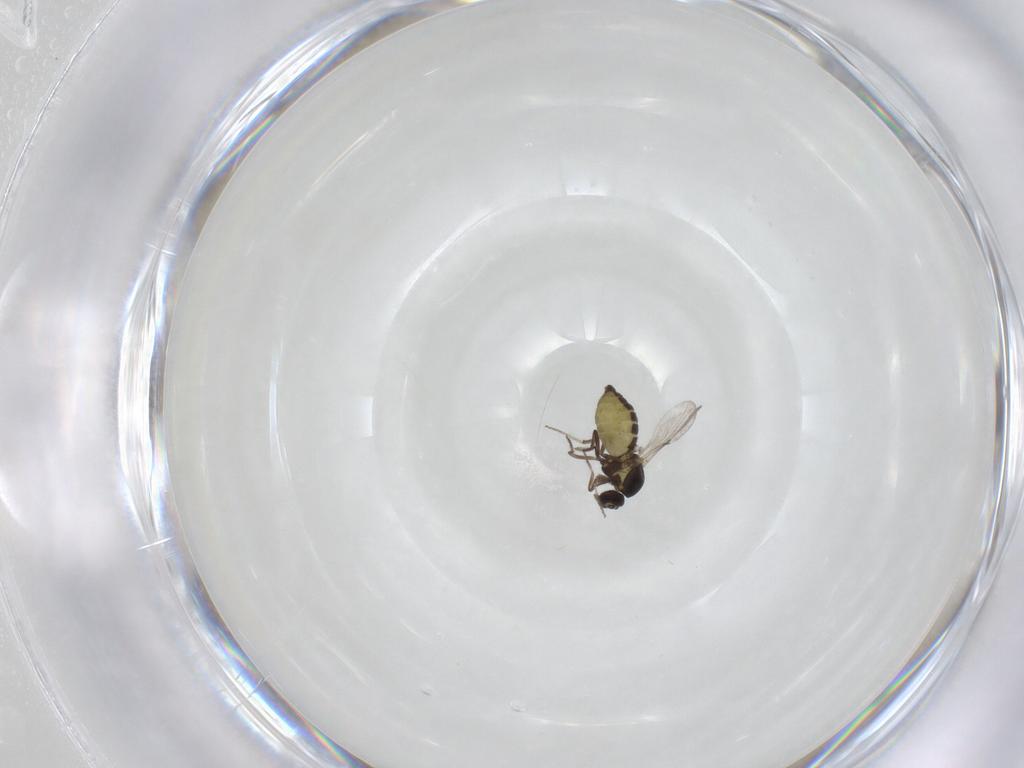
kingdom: Animalia
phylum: Arthropoda
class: Insecta
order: Diptera
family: Ceratopogonidae
